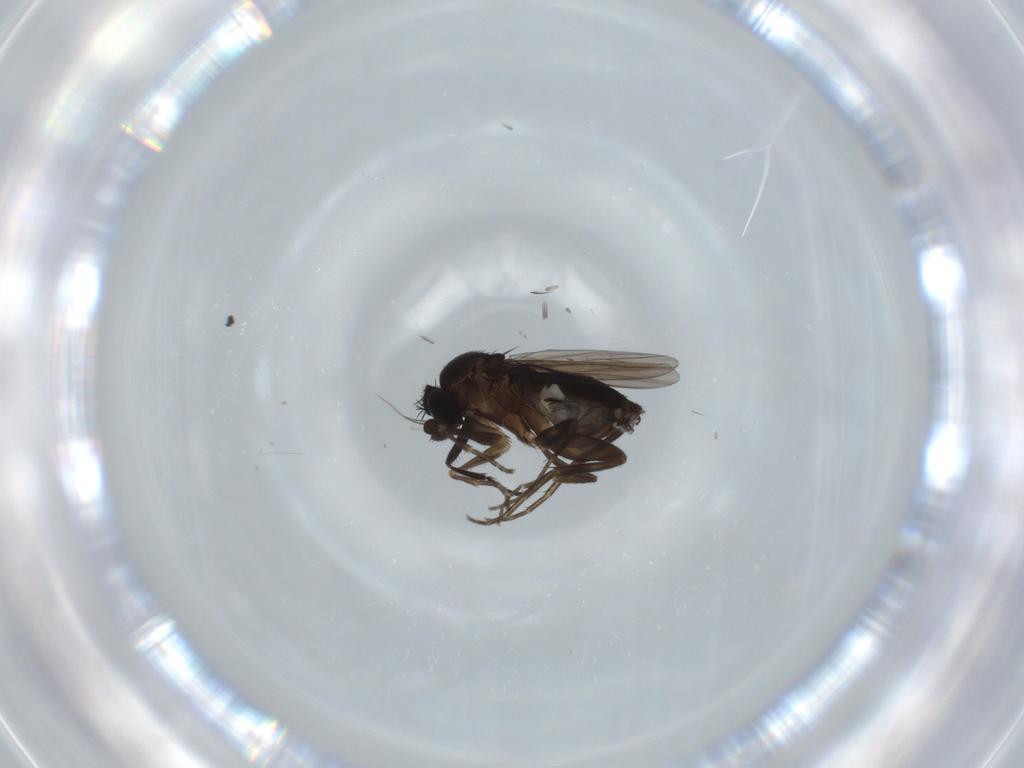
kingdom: Animalia
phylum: Arthropoda
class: Insecta
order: Diptera
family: Phoridae
